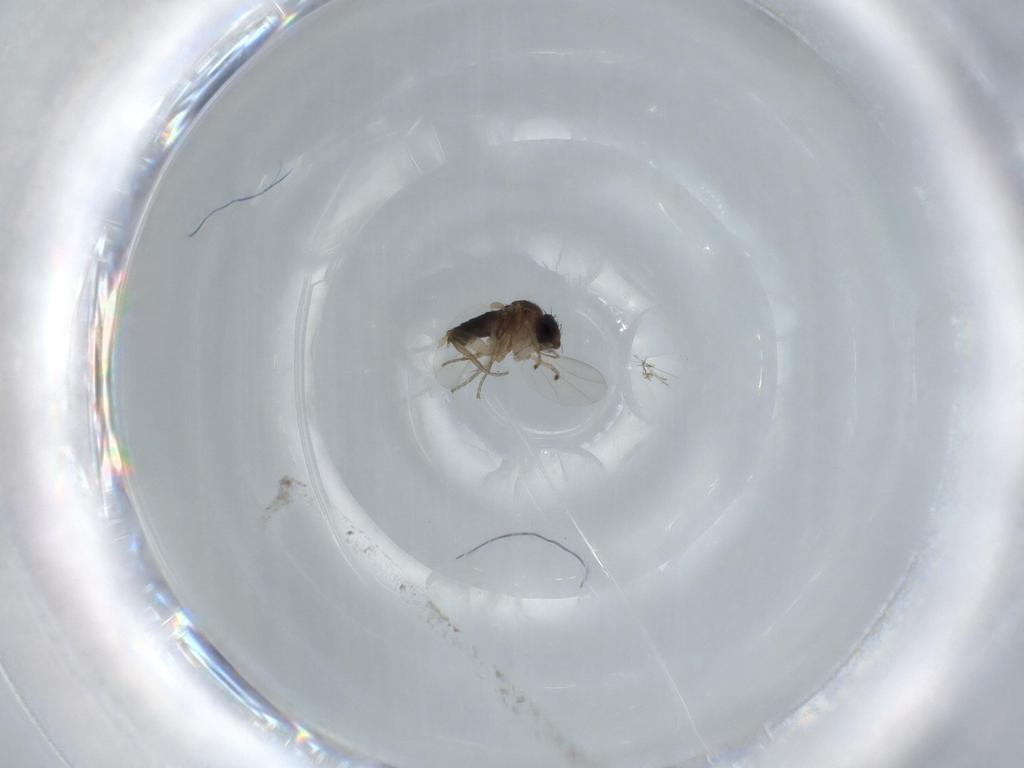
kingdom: Animalia
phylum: Arthropoda
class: Insecta
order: Diptera
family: Phoridae
